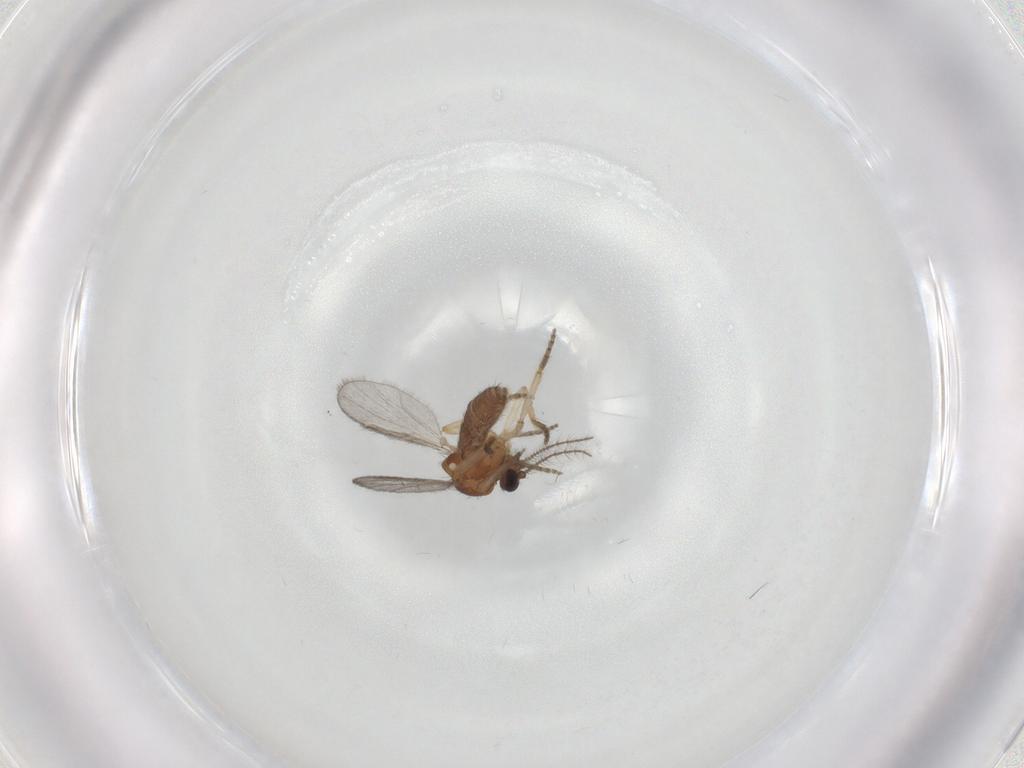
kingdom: Animalia
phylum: Arthropoda
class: Insecta
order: Diptera
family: Ceratopogonidae
